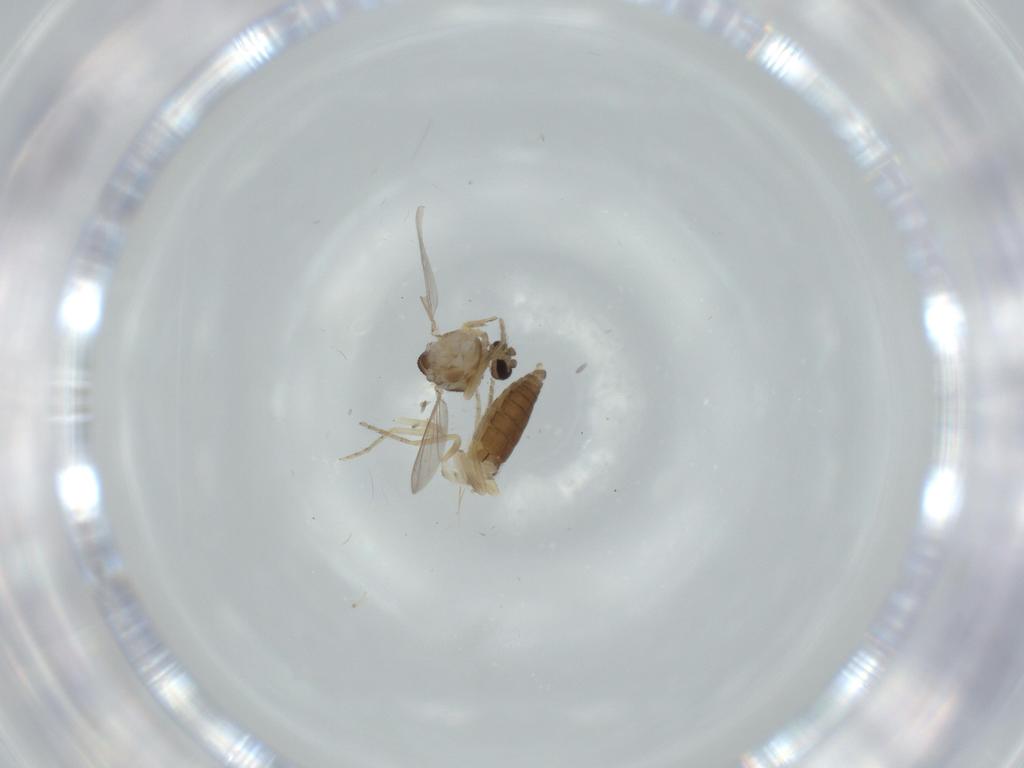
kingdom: Animalia
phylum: Arthropoda
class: Insecta
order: Diptera
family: Ceratopogonidae
